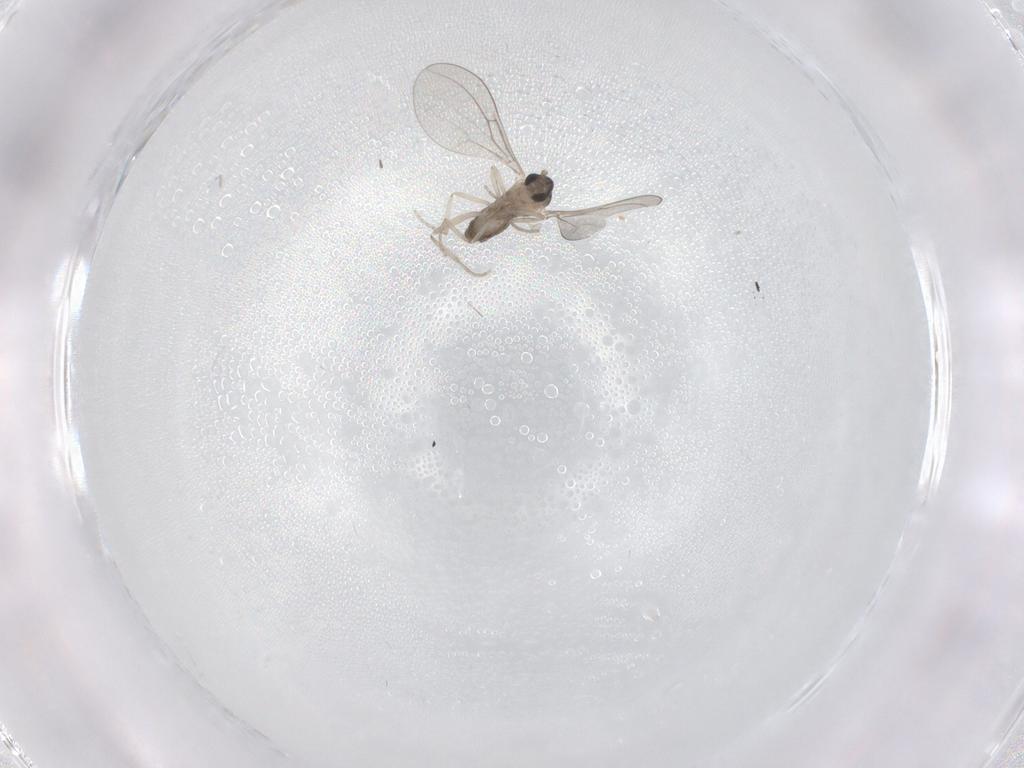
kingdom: Animalia
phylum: Arthropoda
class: Insecta
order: Diptera
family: Cecidomyiidae
